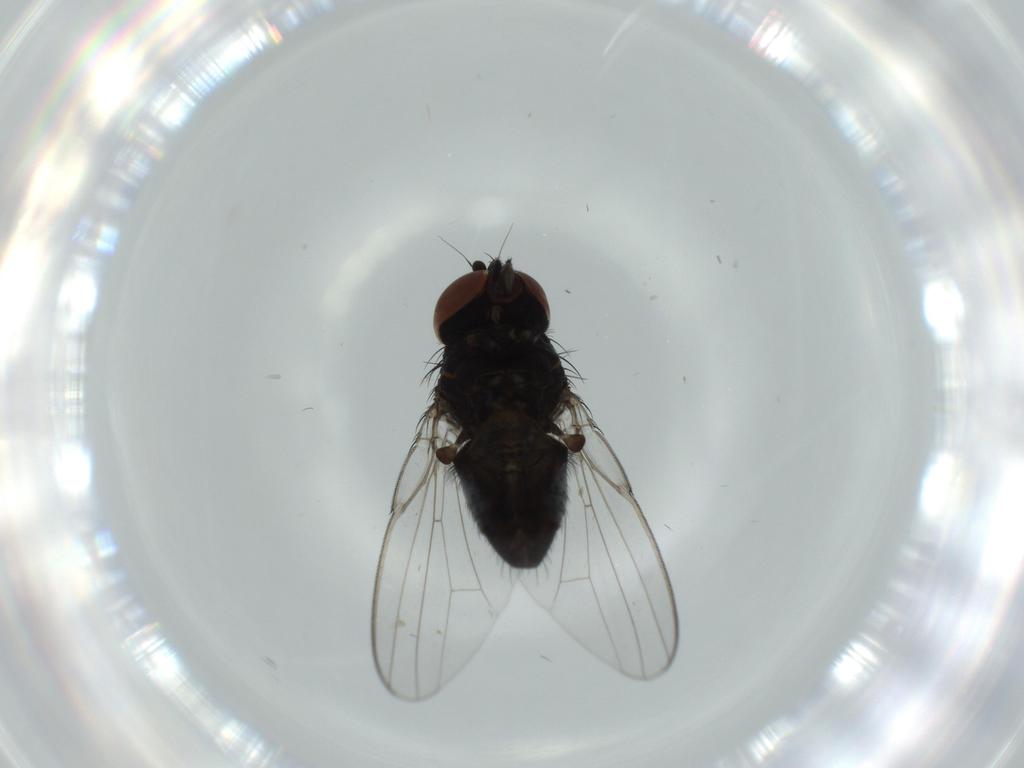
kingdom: Animalia
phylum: Arthropoda
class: Insecta
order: Diptera
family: Milichiidae
